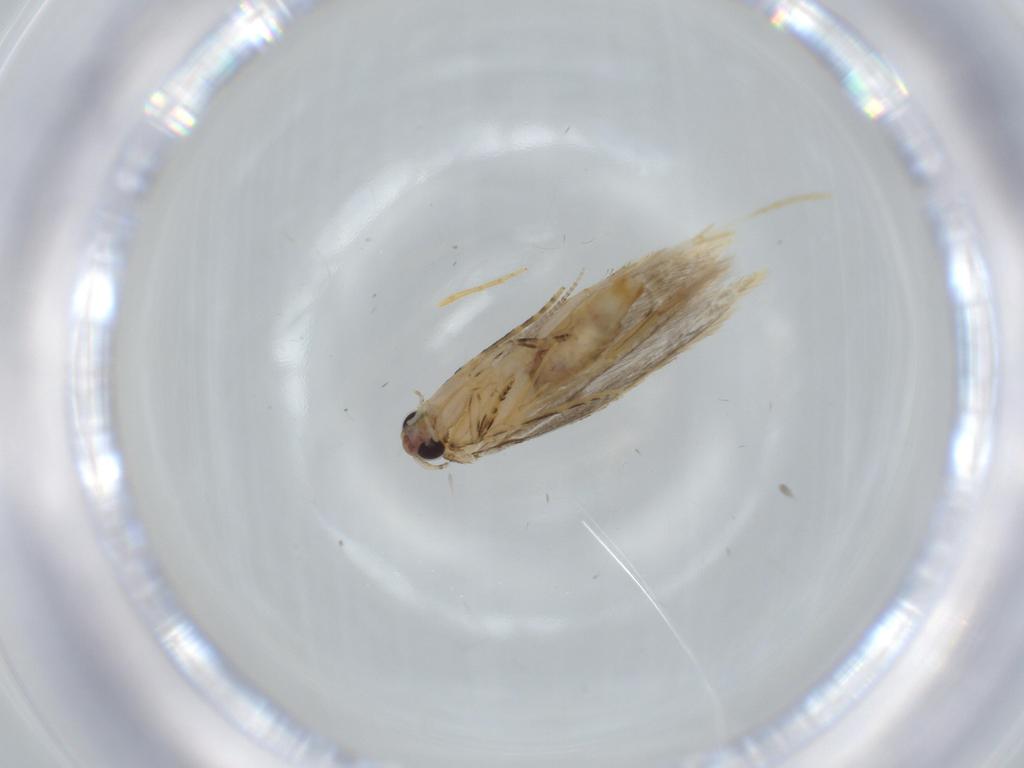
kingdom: Animalia
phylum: Arthropoda
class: Insecta
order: Lepidoptera
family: Tineidae
